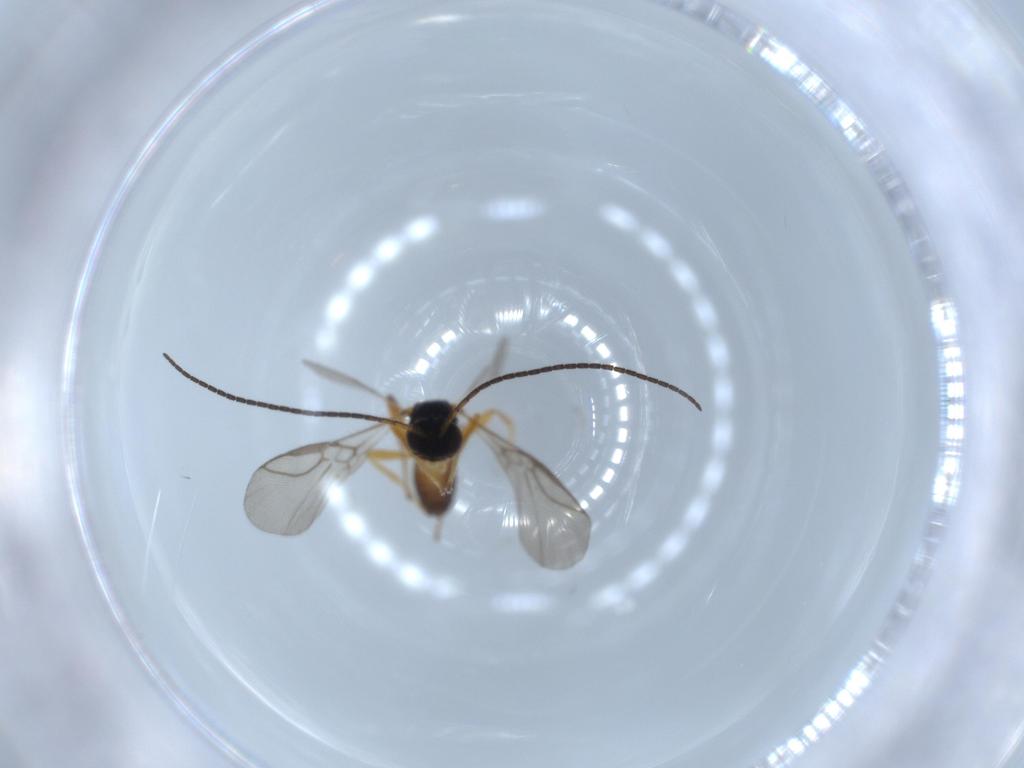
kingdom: Animalia
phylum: Arthropoda
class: Insecta
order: Hymenoptera
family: Braconidae
